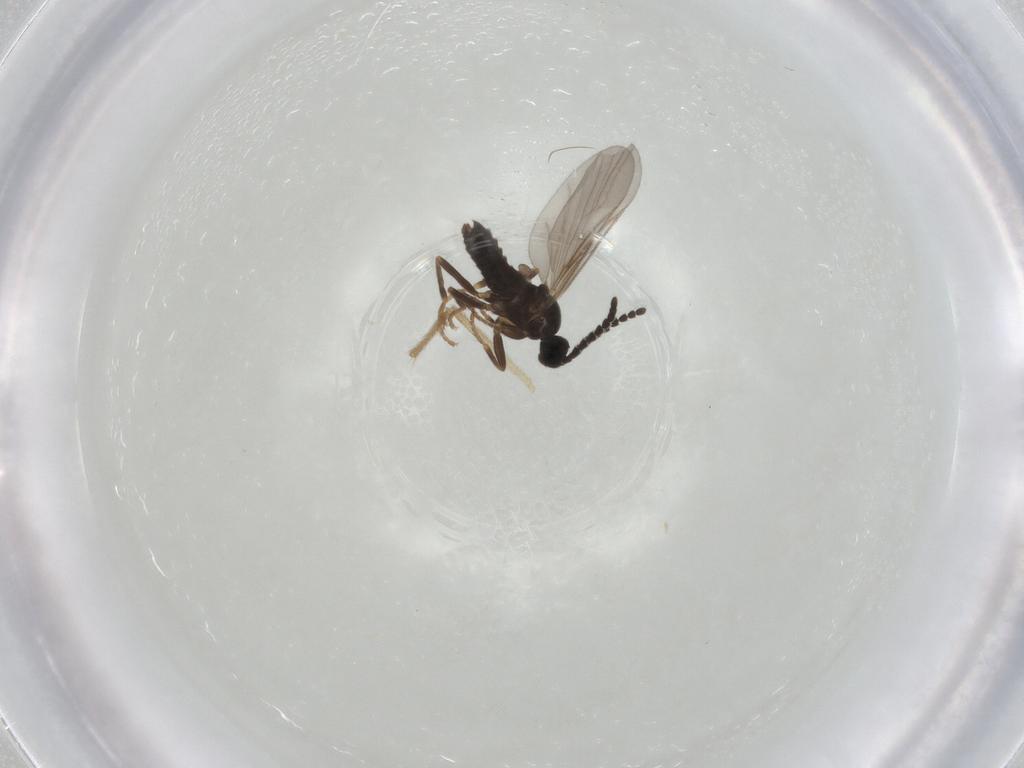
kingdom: Animalia
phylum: Arthropoda
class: Insecta
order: Diptera
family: Scatopsidae
